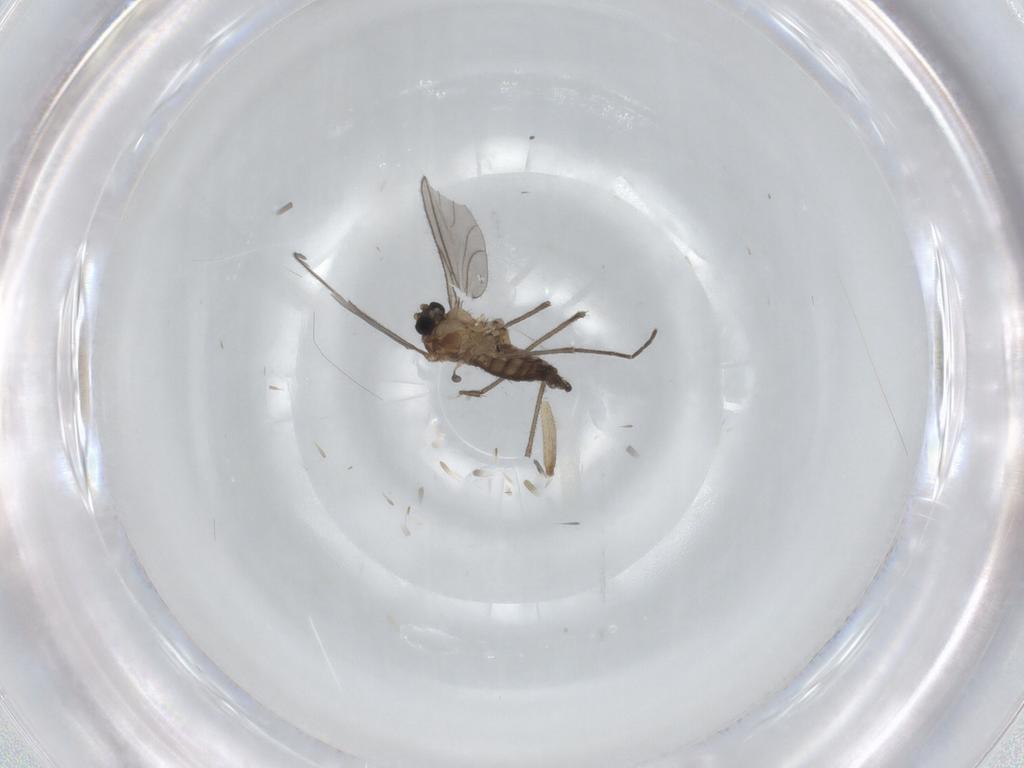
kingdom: Animalia
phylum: Arthropoda
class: Insecta
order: Diptera
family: Sciaridae
